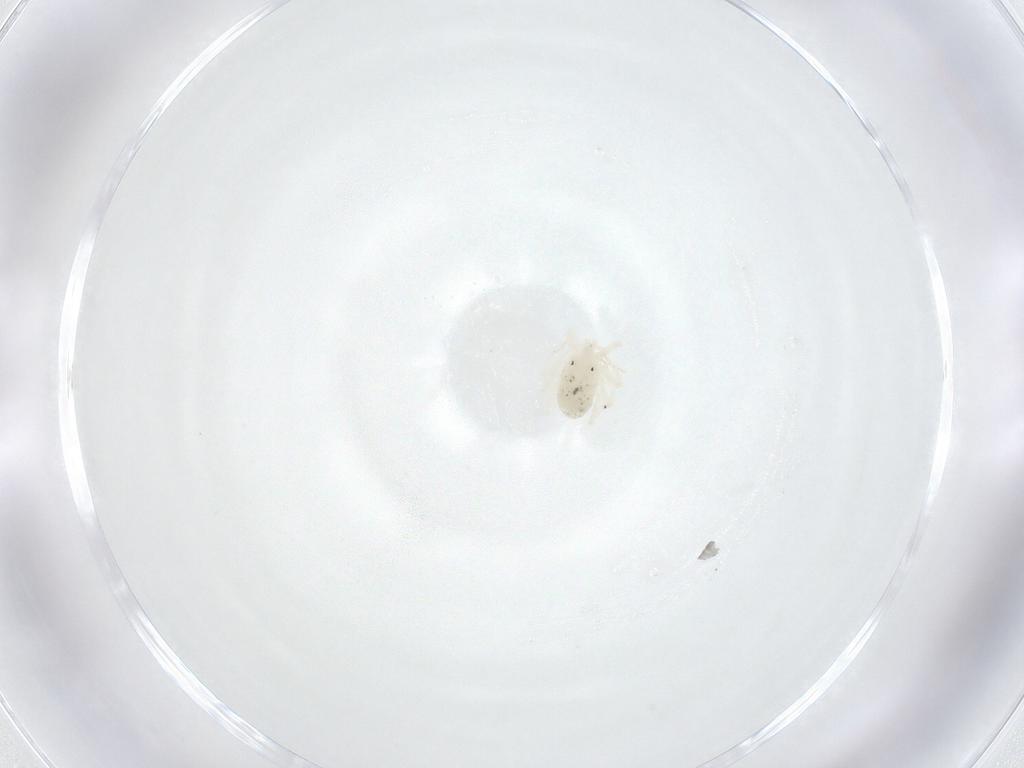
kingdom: Animalia
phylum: Arthropoda
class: Arachnida
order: Trombidiformes
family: Anystidae
